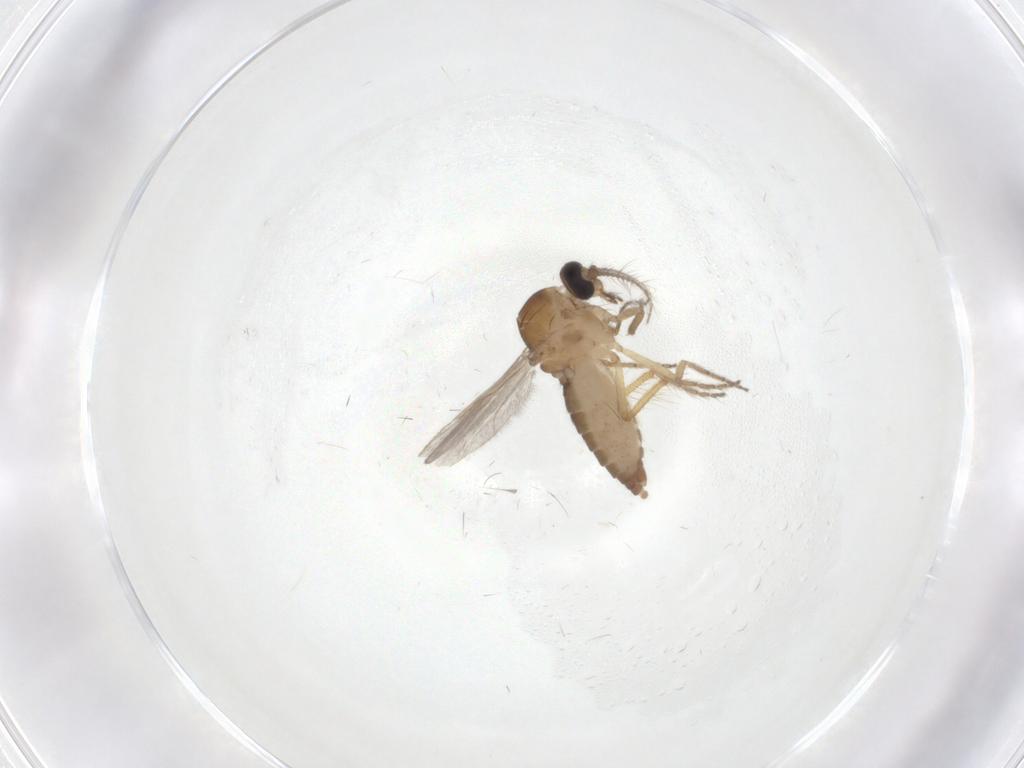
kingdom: Animalia
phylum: Arthropoda
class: Insecta
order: Diptera
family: Ceratopogonidae
